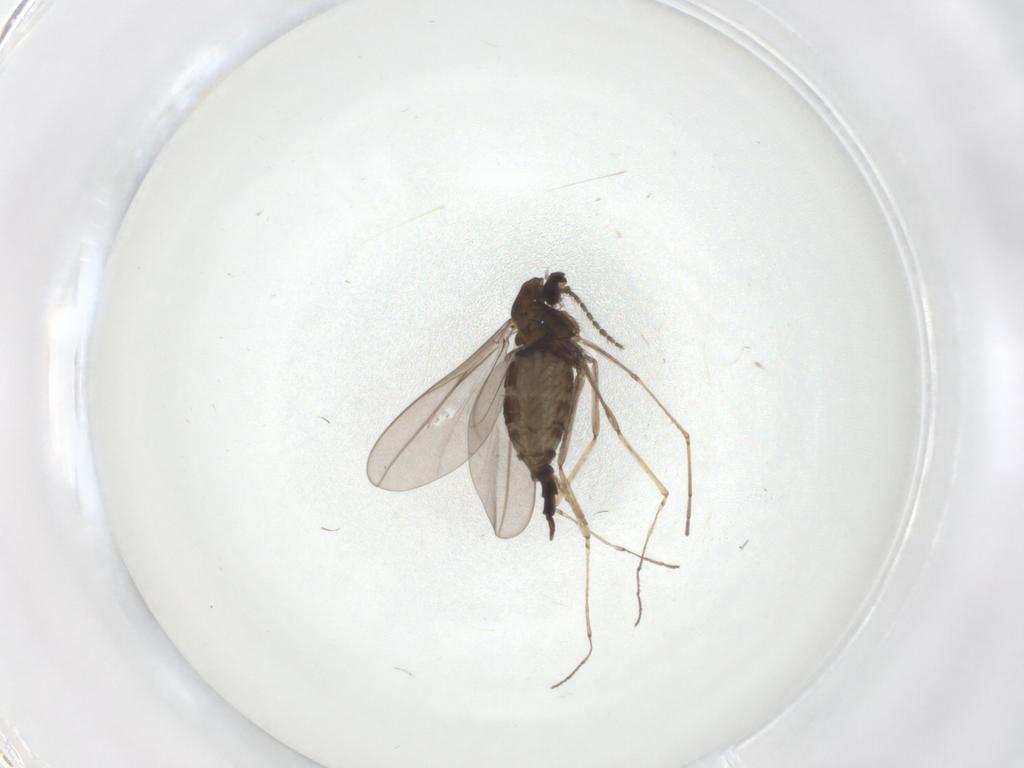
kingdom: Animalia
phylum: Arthropoda
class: Insecta
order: Diptera
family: Cecidomyiidae
